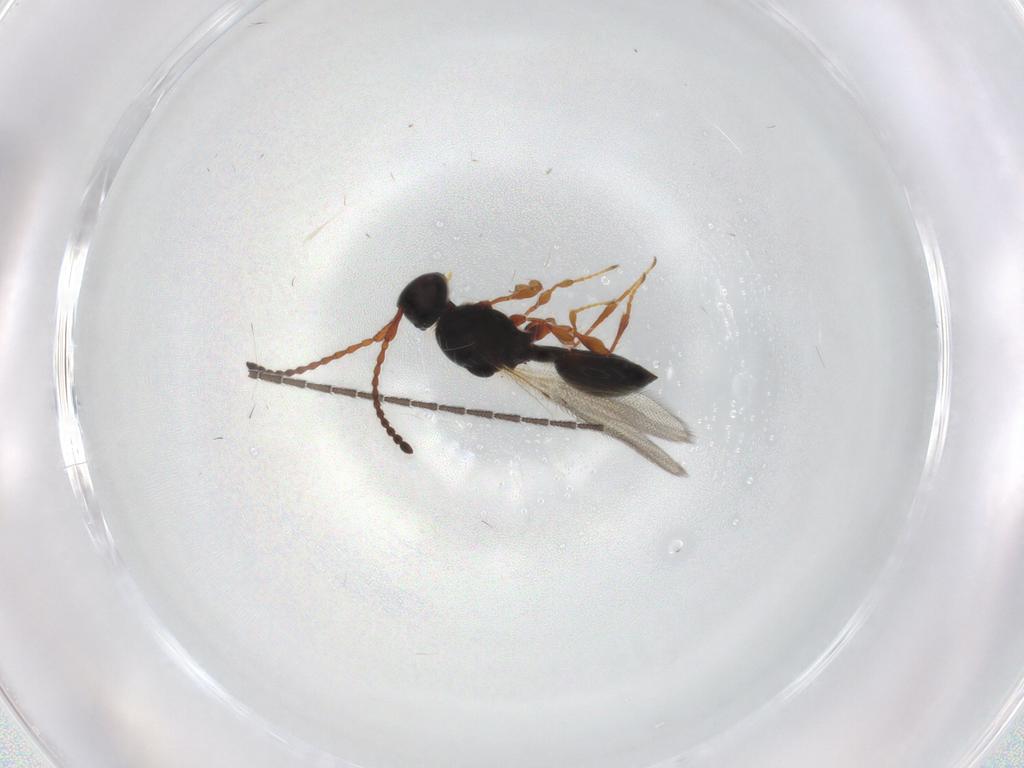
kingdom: Animalia
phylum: Arthropoda
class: Insecta
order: Hymenoptera
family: Diapriidae
